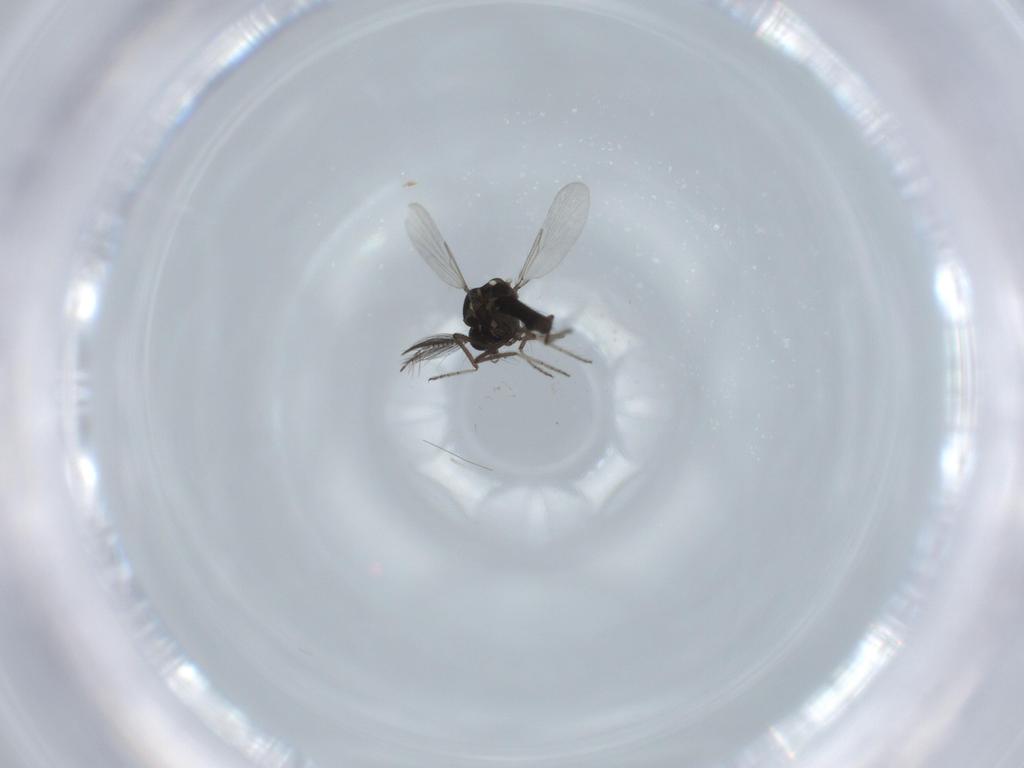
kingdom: Animalia
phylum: Arthropoda
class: Insecta
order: Diptera
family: Ceratopogonidae
